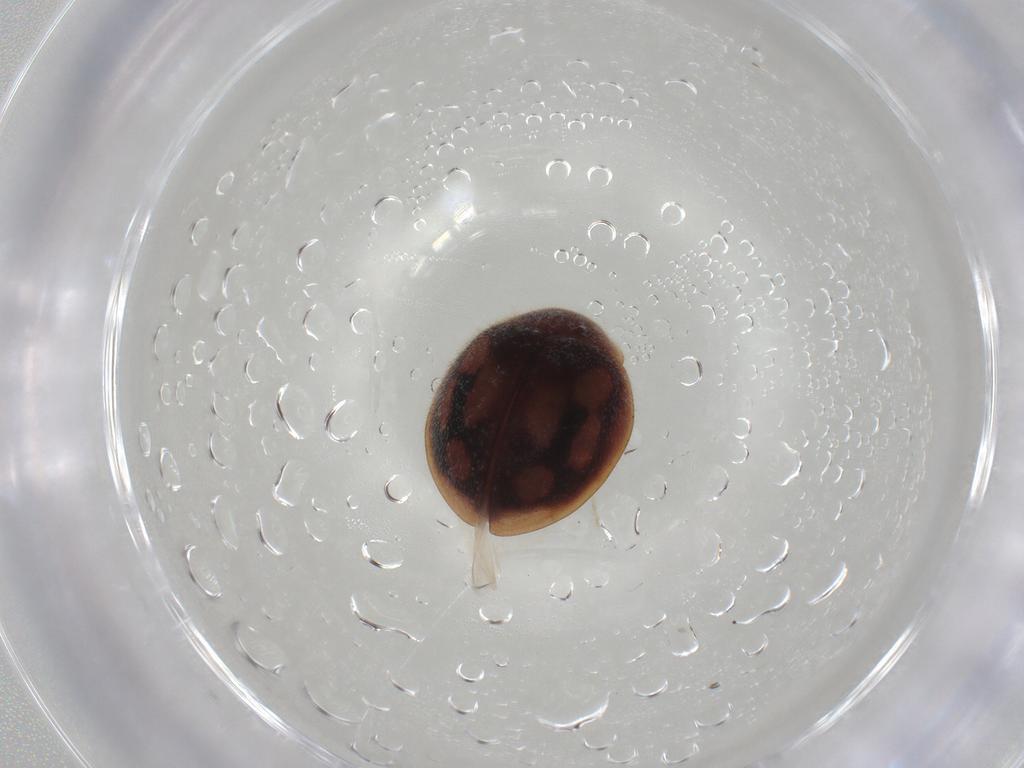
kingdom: Animalia
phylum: Arthropoda
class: Insecta
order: Coleoptera
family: Coccinellidae
